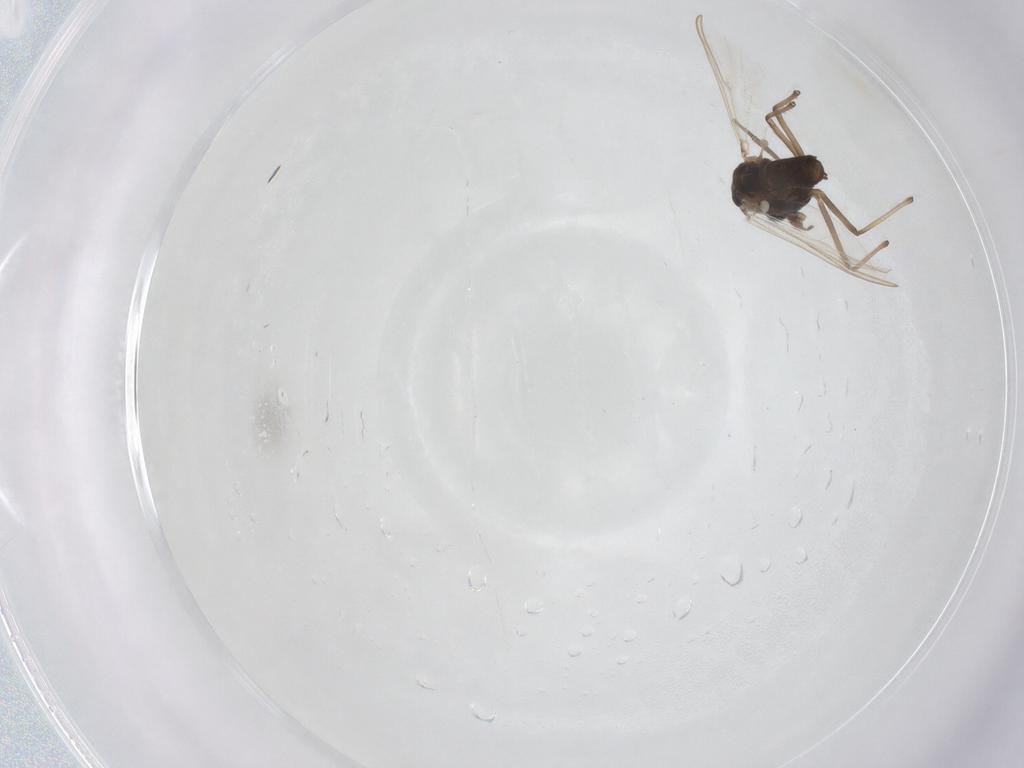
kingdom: Animalia
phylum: Arthropoda
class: Insecta
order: Diptera
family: Chironomidae
